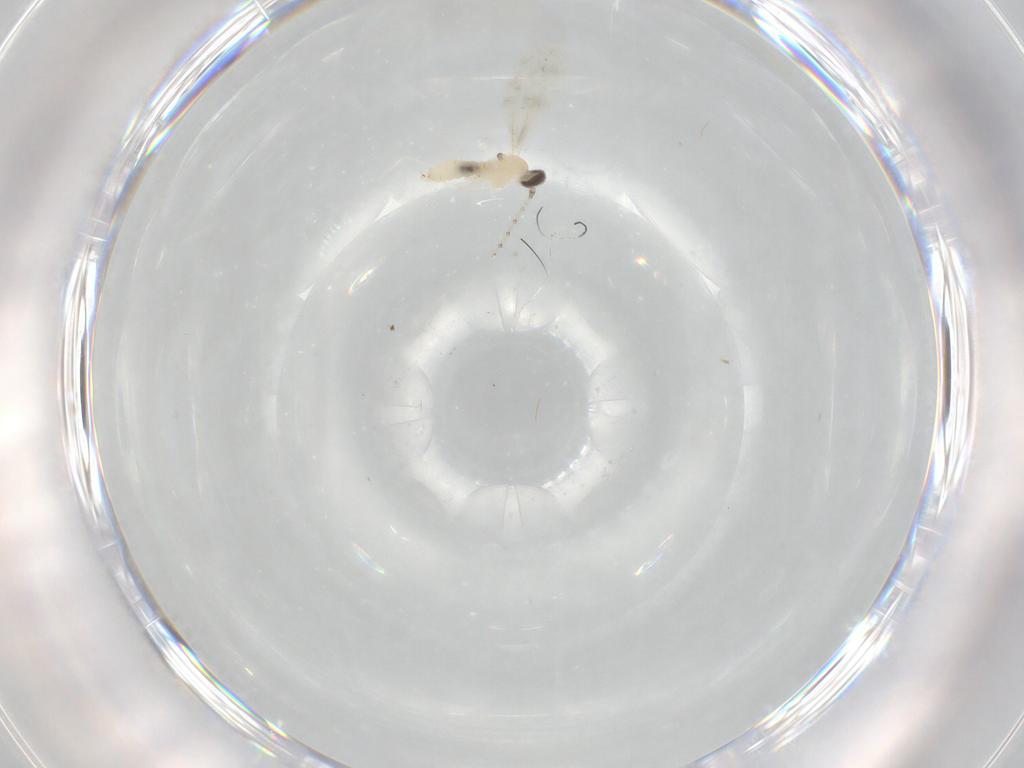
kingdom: Animalia
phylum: Arthropoda
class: Insecta
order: Diptera
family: Cecidomyiidae
